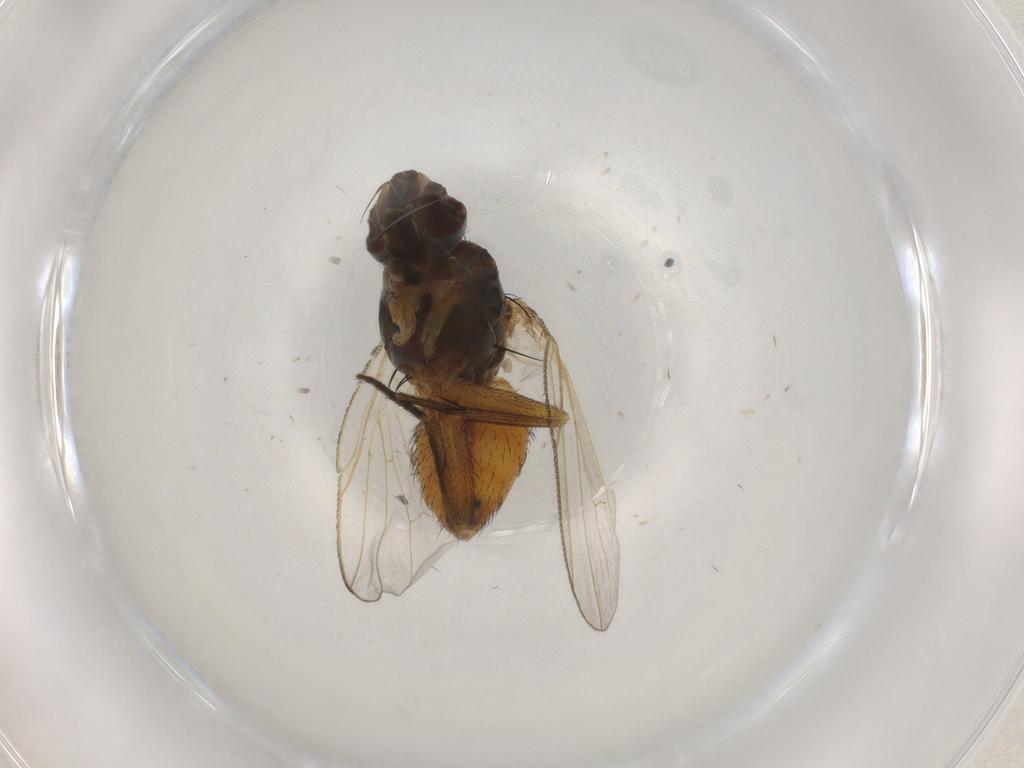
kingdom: Animalia
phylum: Arthropoda
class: Insecta
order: Diptera
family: Muscidae
